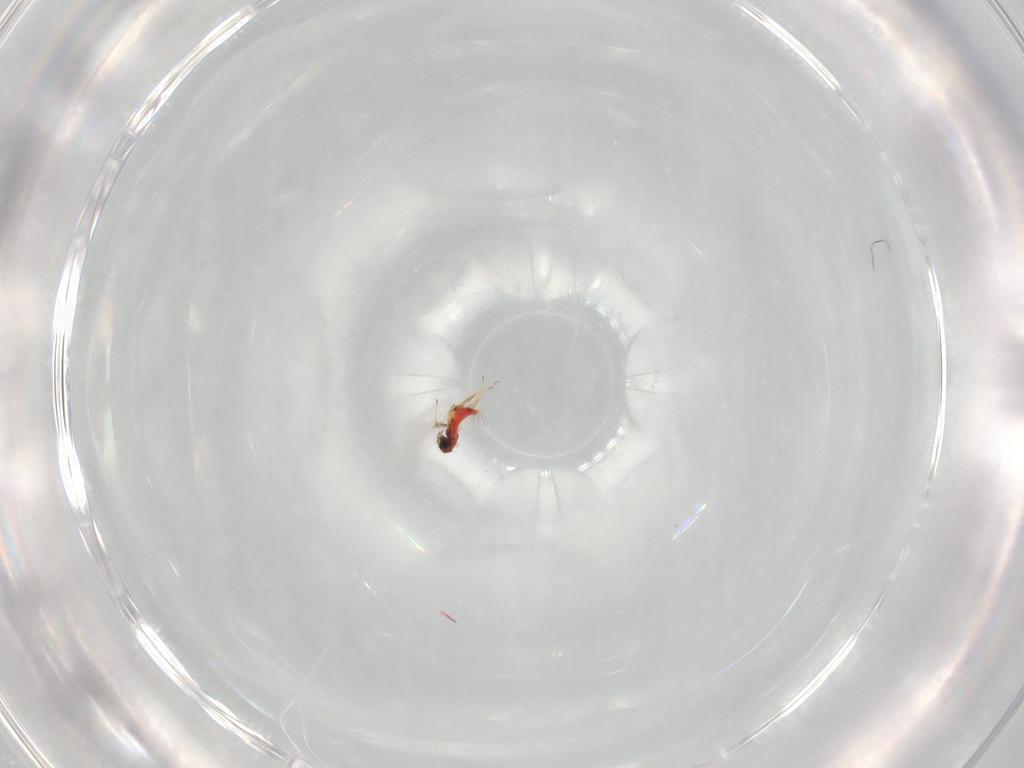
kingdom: Animalia
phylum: Arthropoda
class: Insecta
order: Hymenoptera
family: Trichogrammatidae
